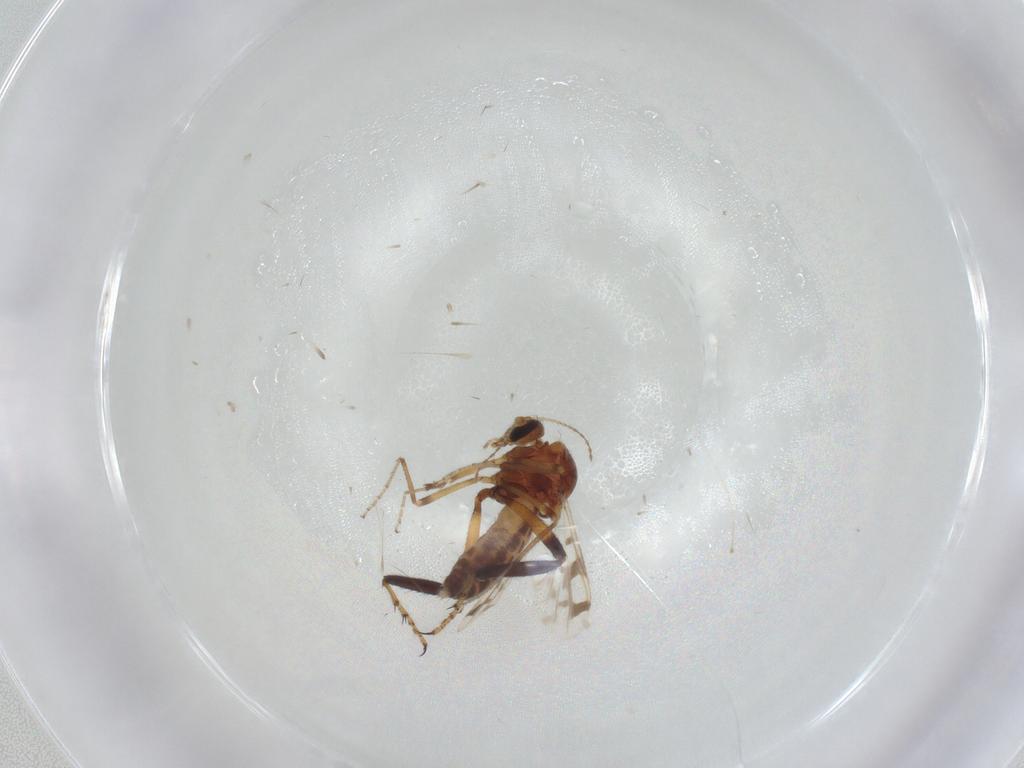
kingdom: Animalia
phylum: Arthropoda
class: Insecta
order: Diptera
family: Ceratopogonidae
